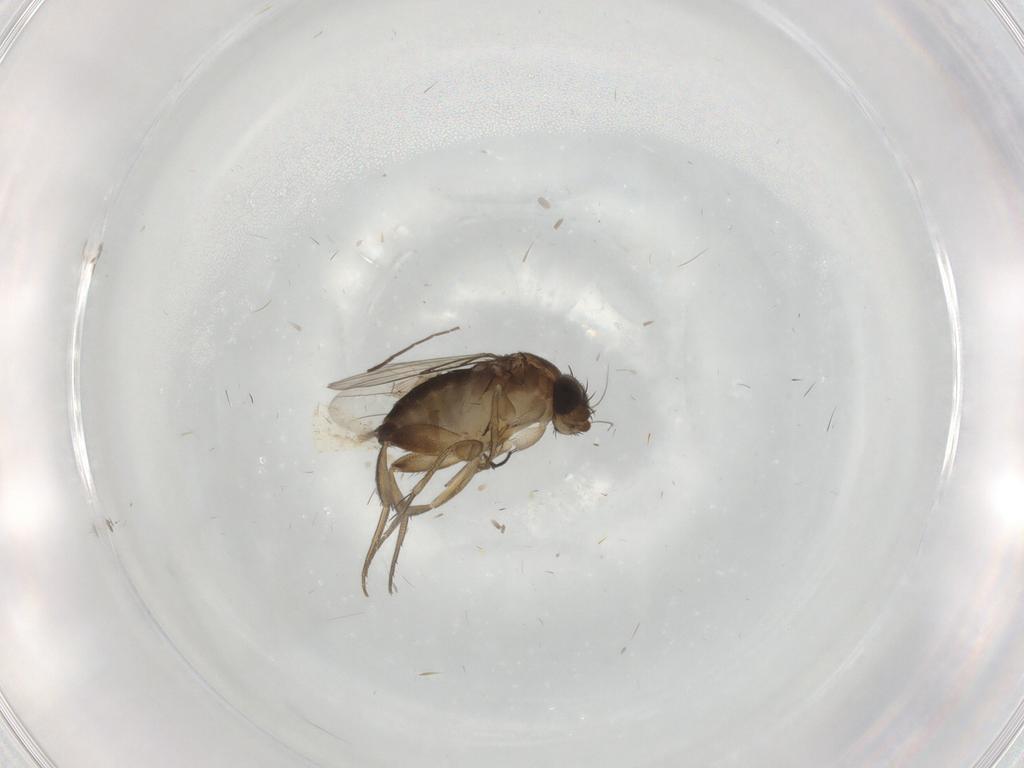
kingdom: Animalia
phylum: Arthropoda
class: Insecta
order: Diptera
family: Phoridae
